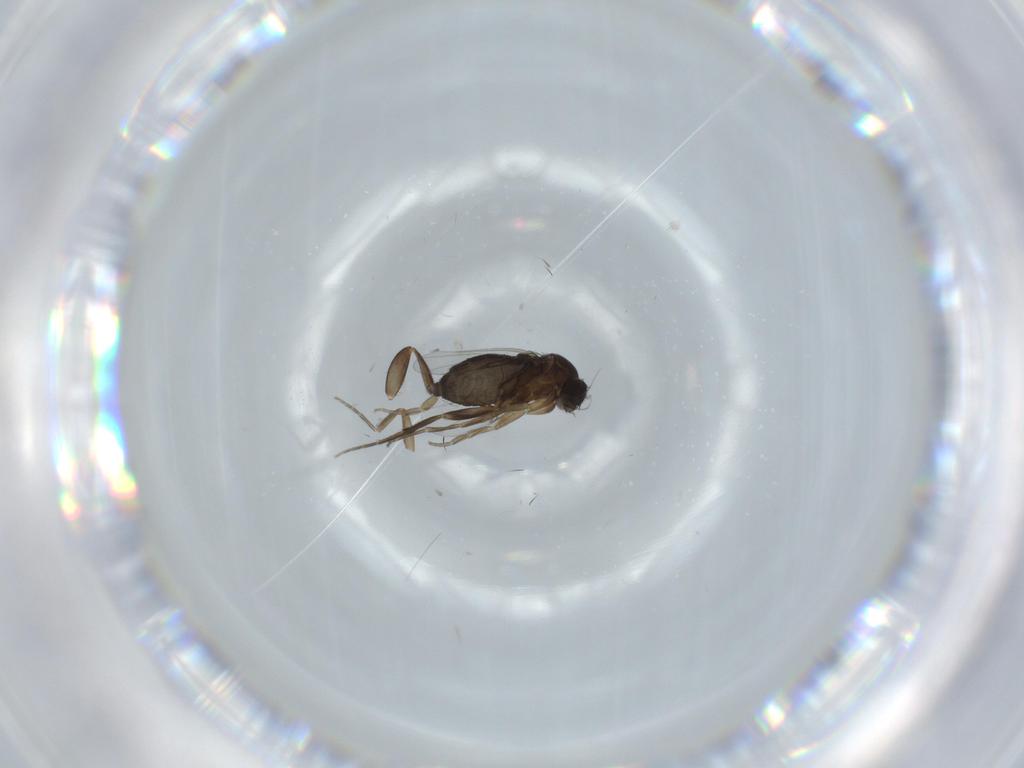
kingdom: Animalia
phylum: Arthropoda
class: Insecta
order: Diptera
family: Phoridae
